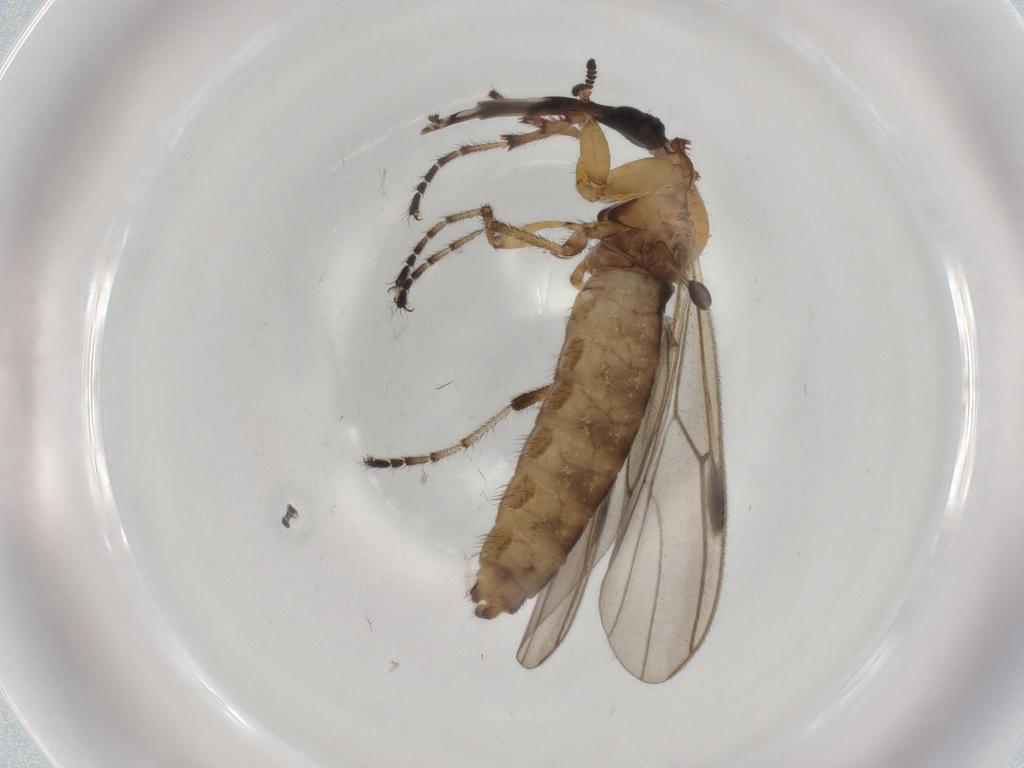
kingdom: Animalia
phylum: Arthropoda
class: Insecta
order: Diptera
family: Bibionidae
